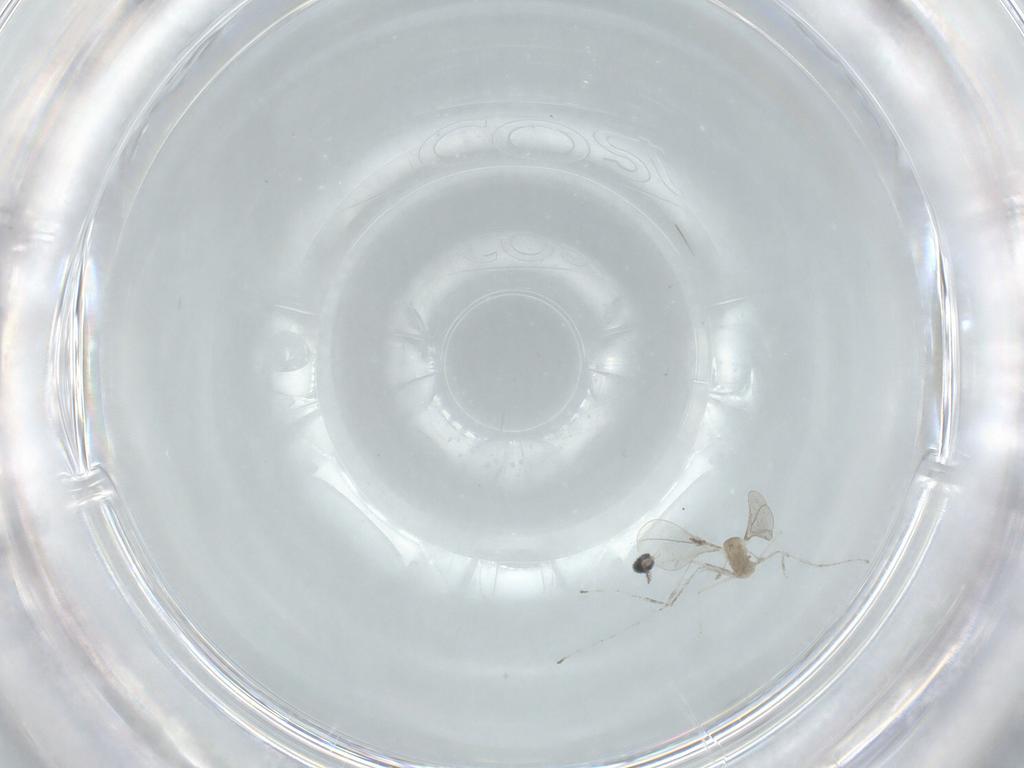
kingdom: Animalia
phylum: Arthropoda
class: Insecta
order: Diptera
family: Cecidomyiidae
